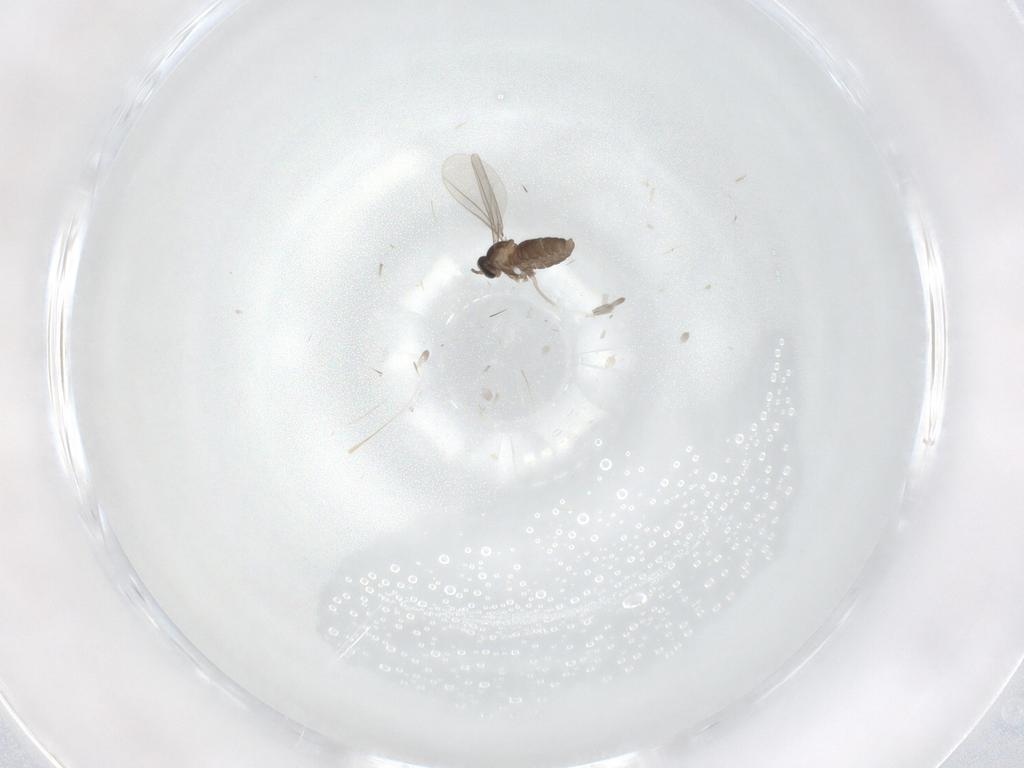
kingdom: Animalia
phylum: Arthropoda
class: Insecta
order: Diptera
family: Cecidomyiidae
